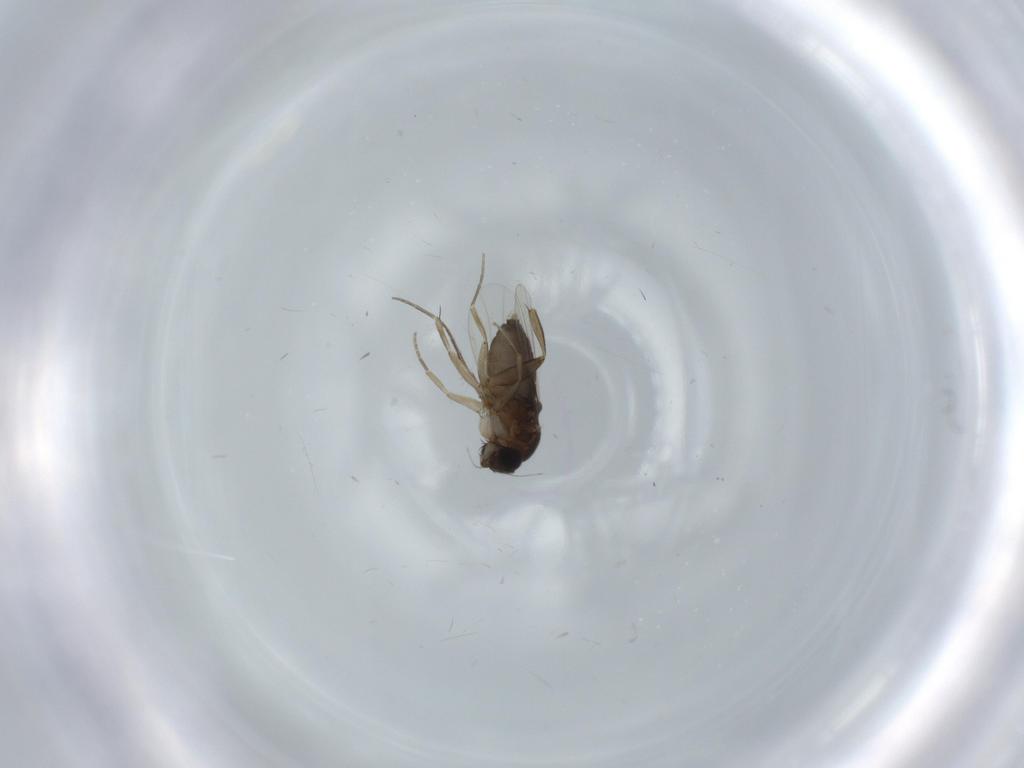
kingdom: Animalia
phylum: Arthropoda
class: Insecta
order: Diptera
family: Phoridae
